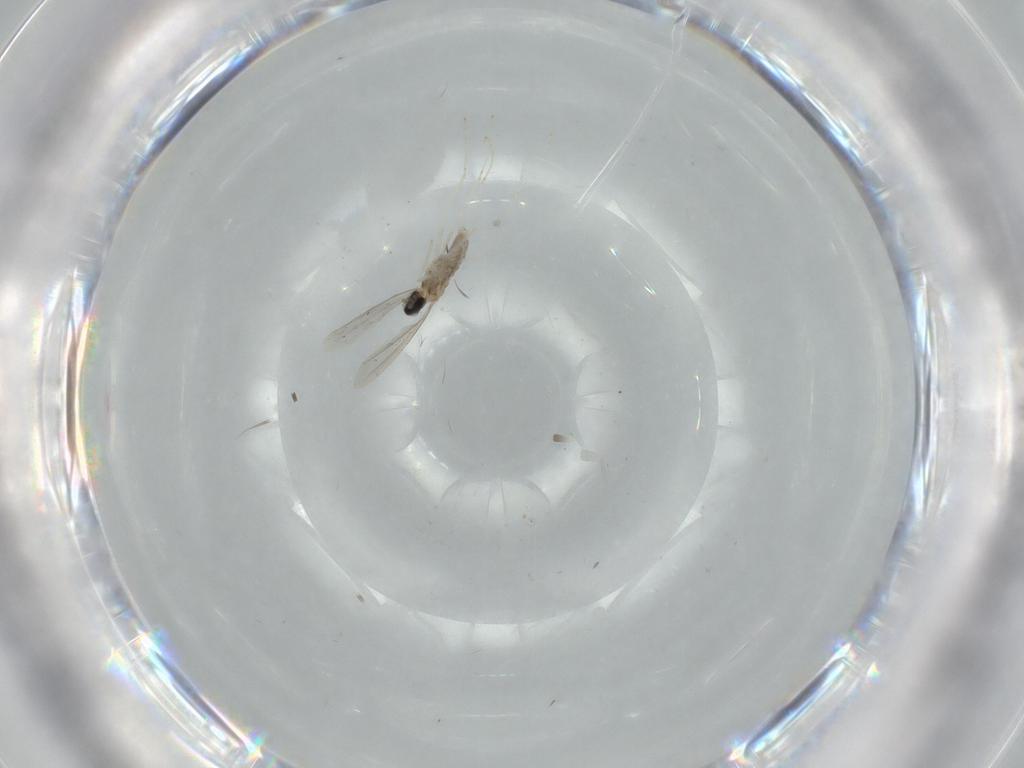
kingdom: Animalia
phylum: Arthropoda
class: Insecta
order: Diptera
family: Cecidomyiidae
